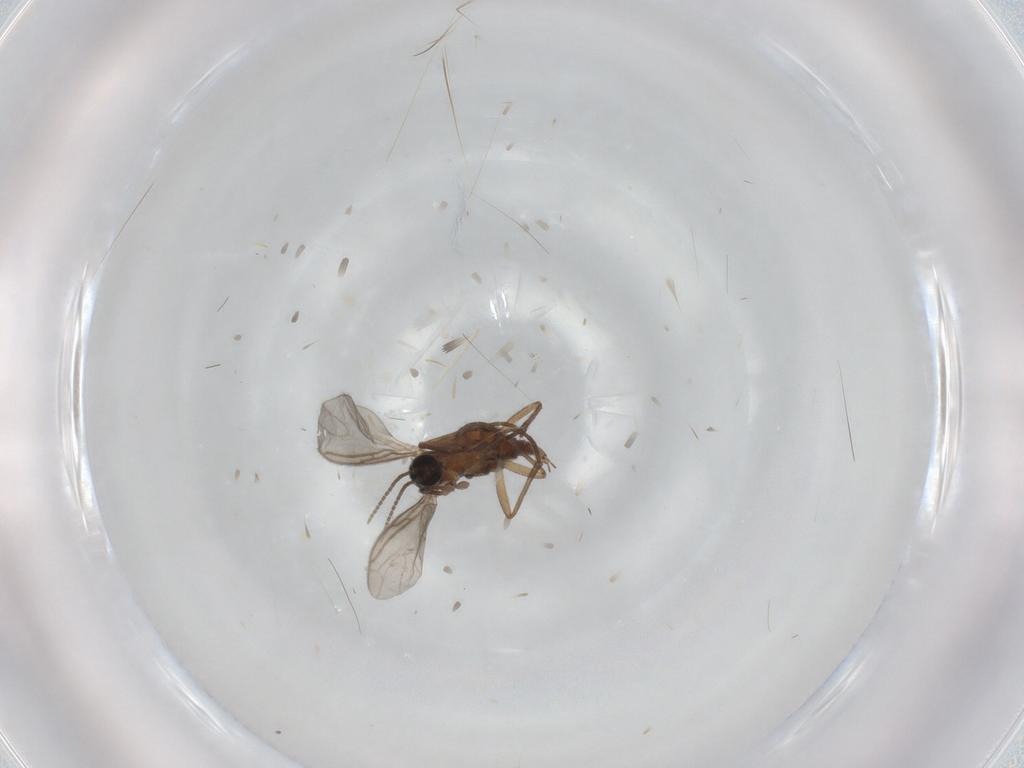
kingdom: Animalia
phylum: Arthropoda
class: Insecta
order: Diptera
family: Sciaridae
